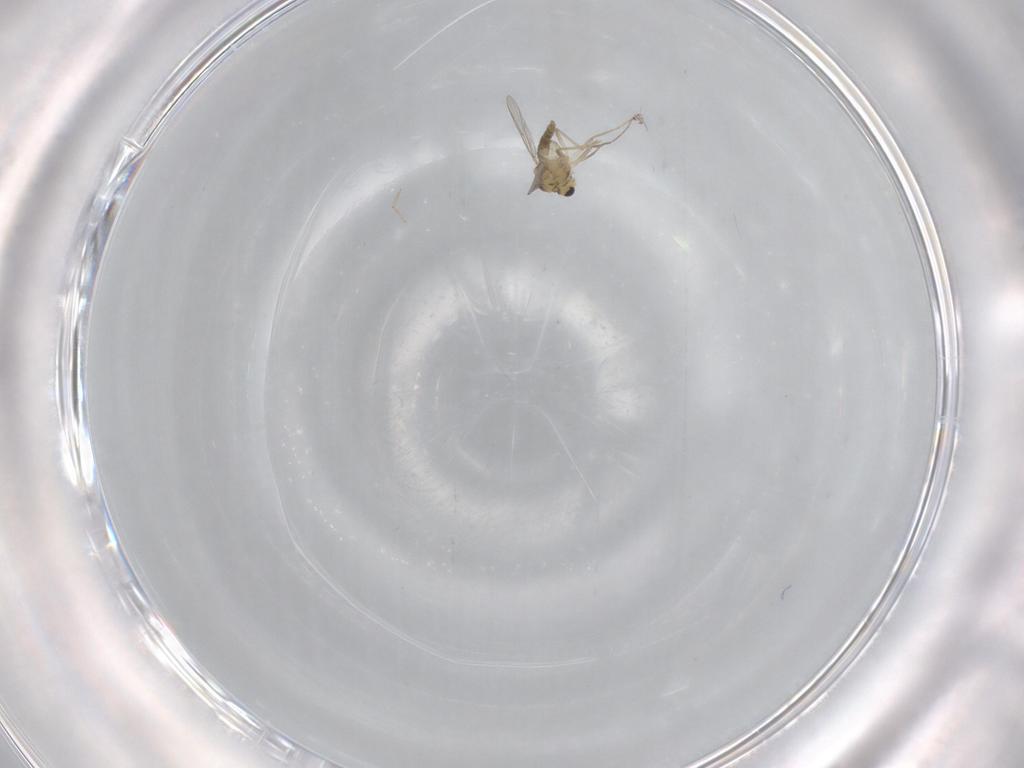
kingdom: Animalia
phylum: Arthropoda
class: Insecta
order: Diptera
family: Chironomidae
